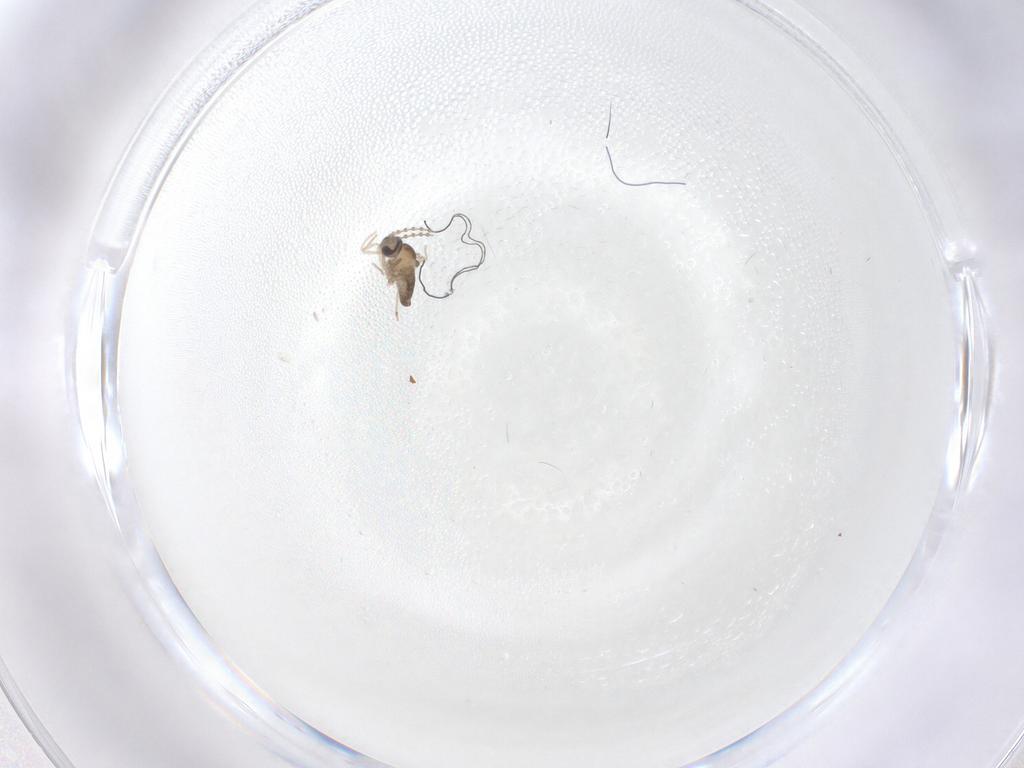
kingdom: Animalia
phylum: Arthropoda
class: Insecta
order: Diptera
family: Cecidomyiidae
